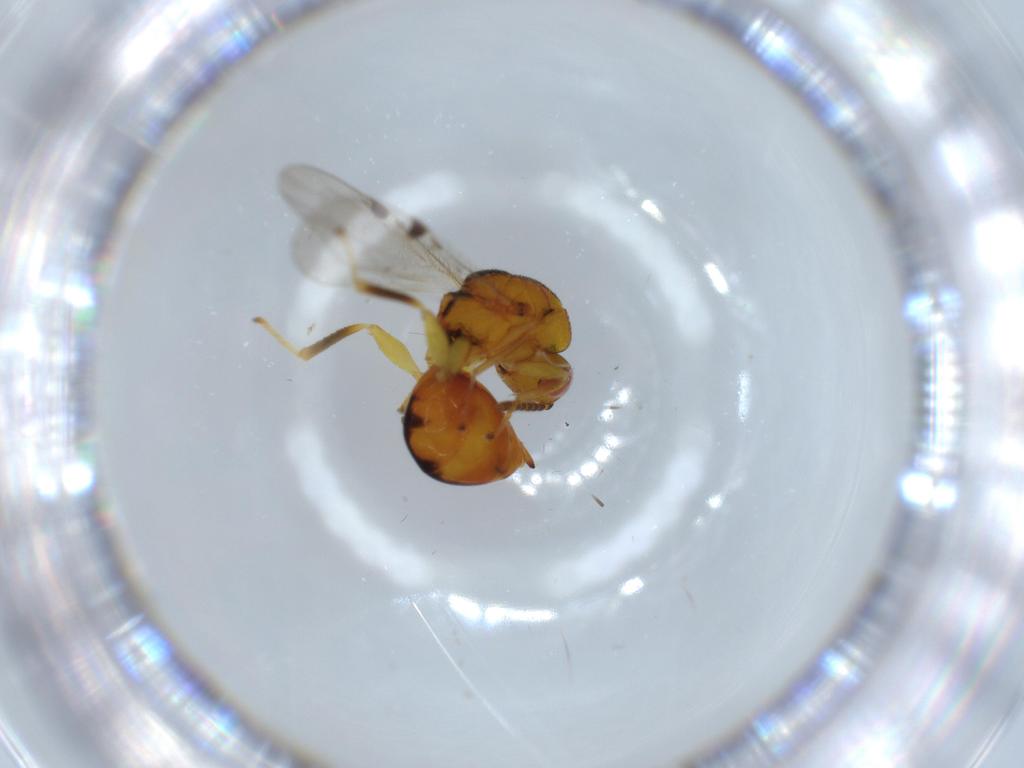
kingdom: Animalia
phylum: Arthropoda
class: Insecta
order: Hymenoptera
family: Eurytomidae
